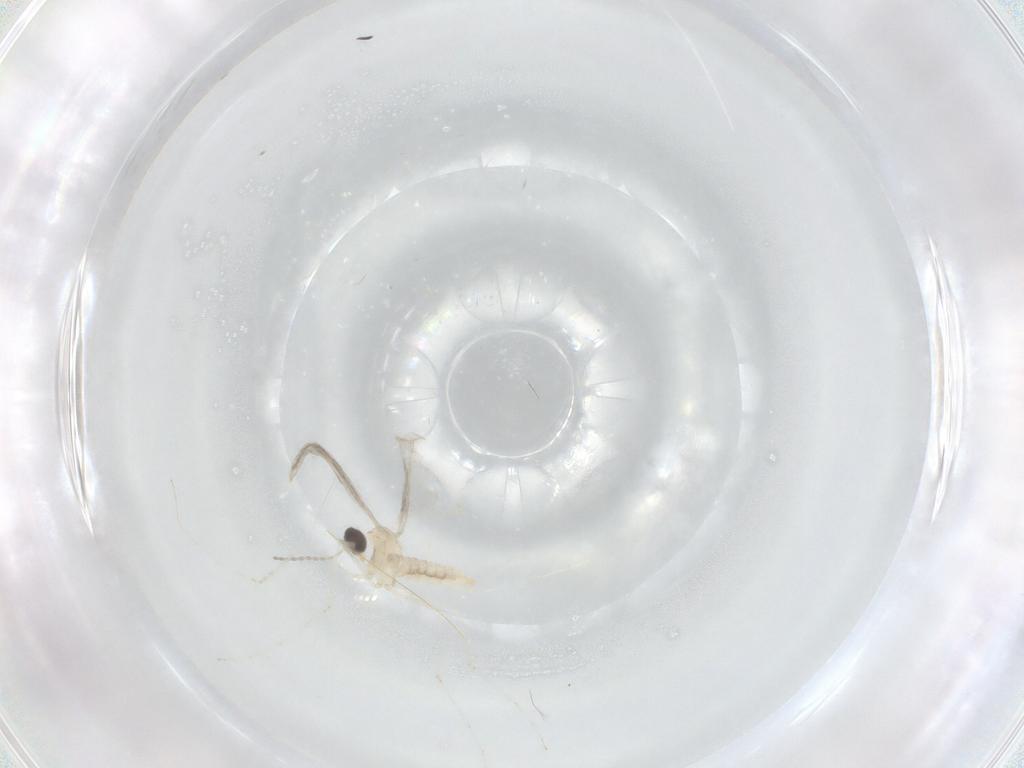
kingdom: Animalia
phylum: Arthropoda
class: Insecta
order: Diptera
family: Cecidomyiidae
